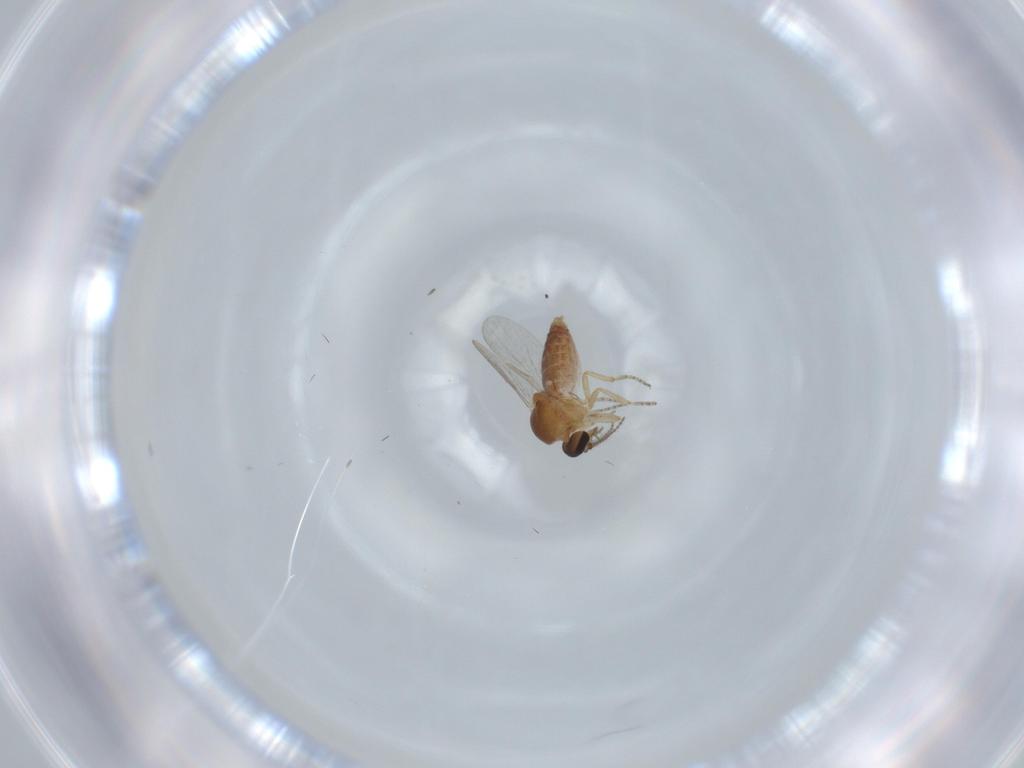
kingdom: Animalia
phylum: Arthropoda
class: Insecta
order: Diptera
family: Ceratopogonidae
